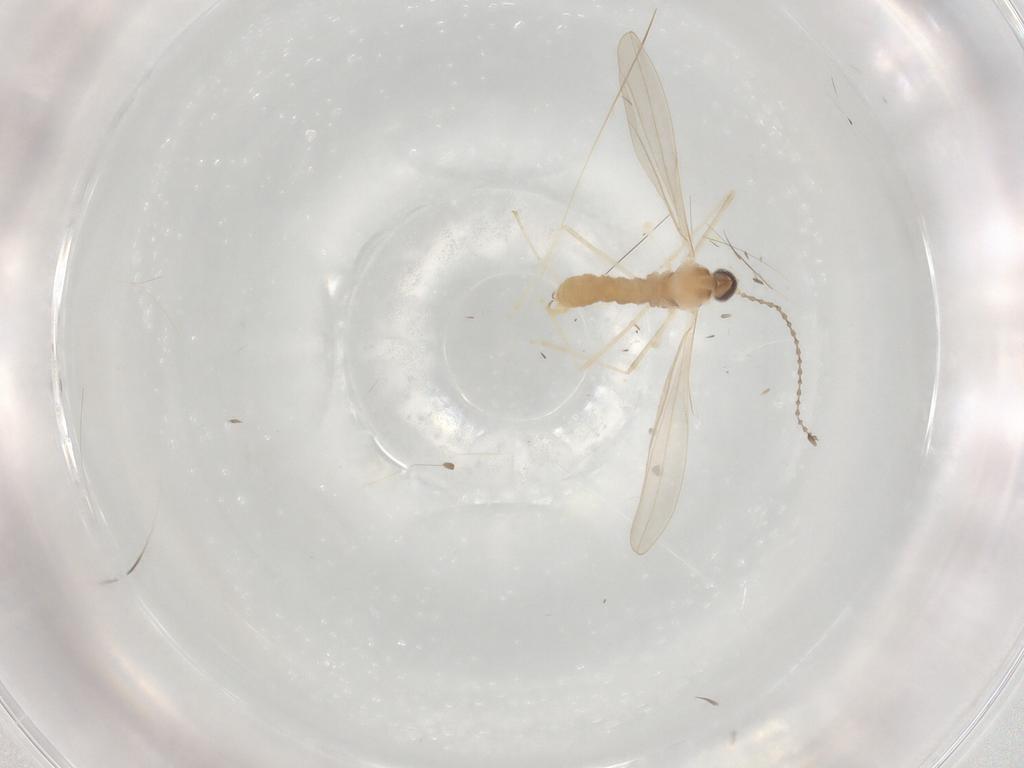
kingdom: Animalia
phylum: Arthropoda
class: Insecta
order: Diptera
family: Cecidomyiidae
